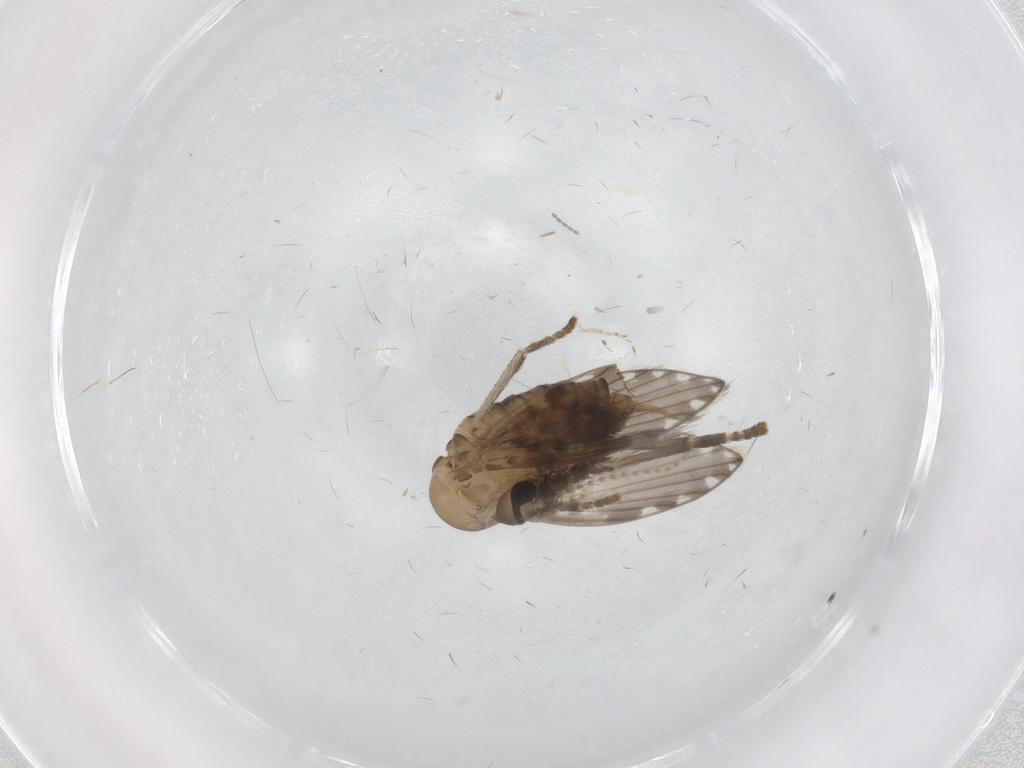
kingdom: Animalia
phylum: Arthropoda
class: Insecta
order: Diptera
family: Psychodidae
